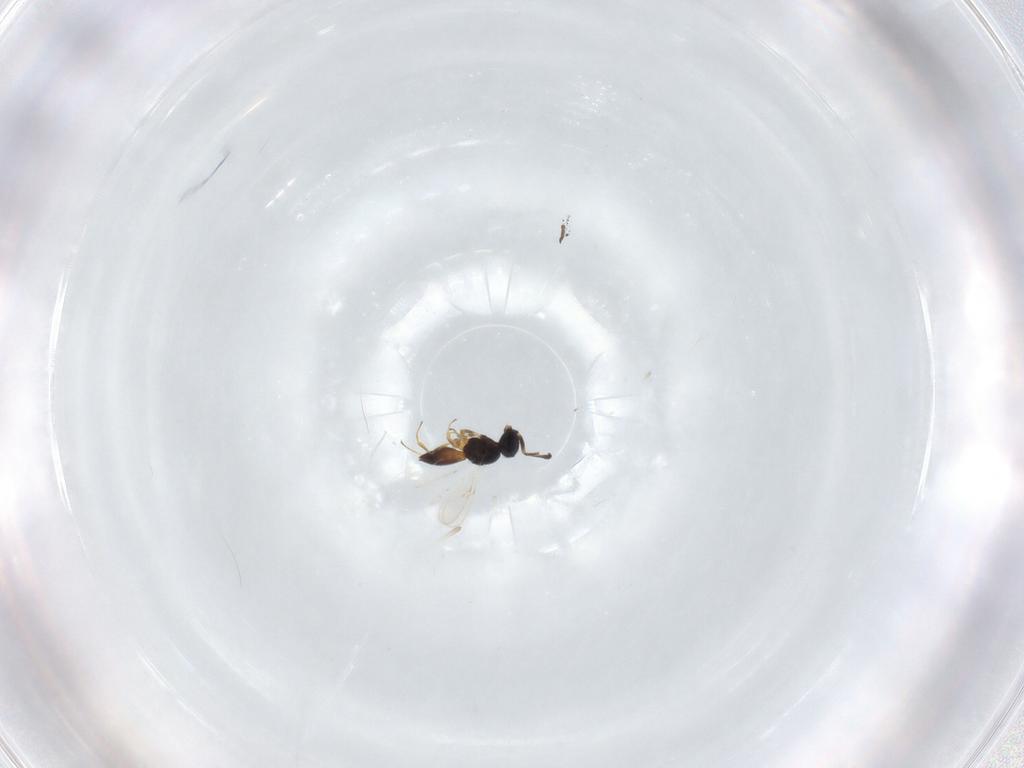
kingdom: Animalia
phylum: Arthropoda
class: Insecta
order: Hymenoptera
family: Scelionidae
